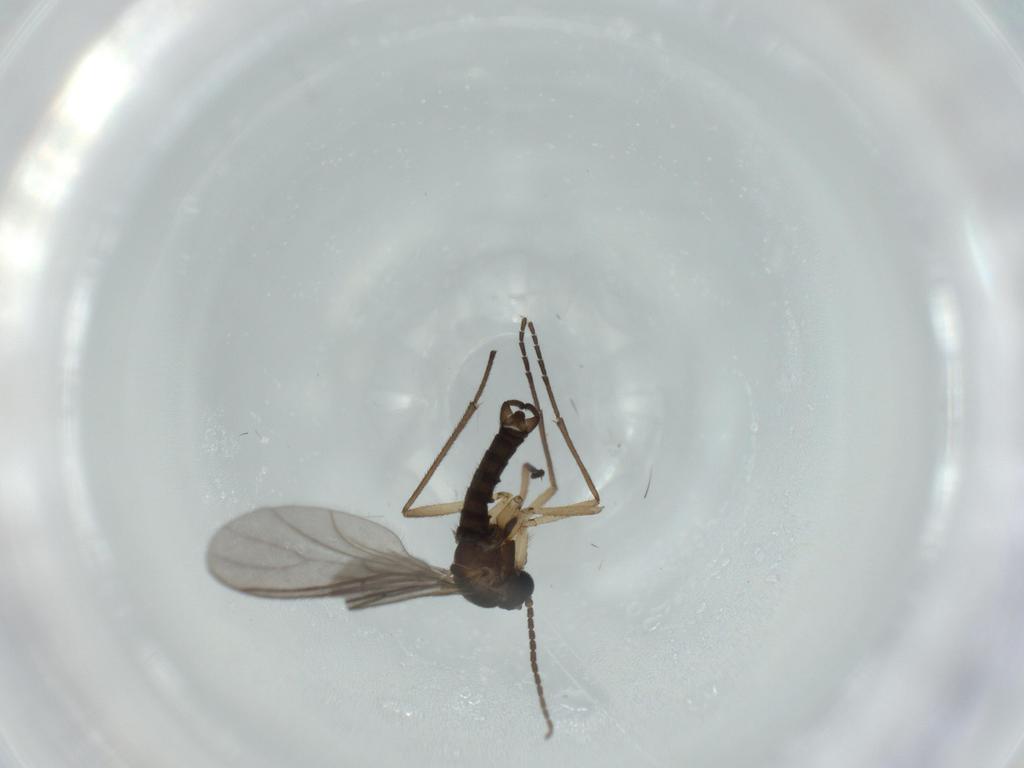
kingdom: Animalia
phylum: Arthropoda
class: Insecta
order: Diptera
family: Sciaridae
